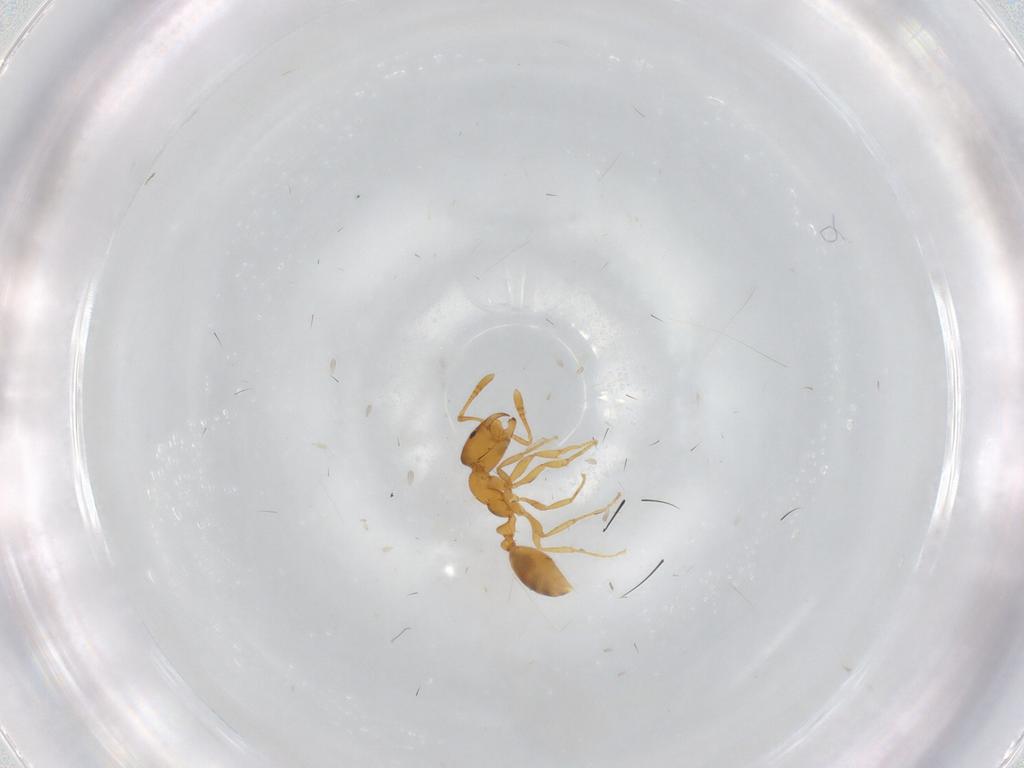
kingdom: Animalia
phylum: Arthropoda
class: Insecta
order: Hymenoptera
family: Formicidae
